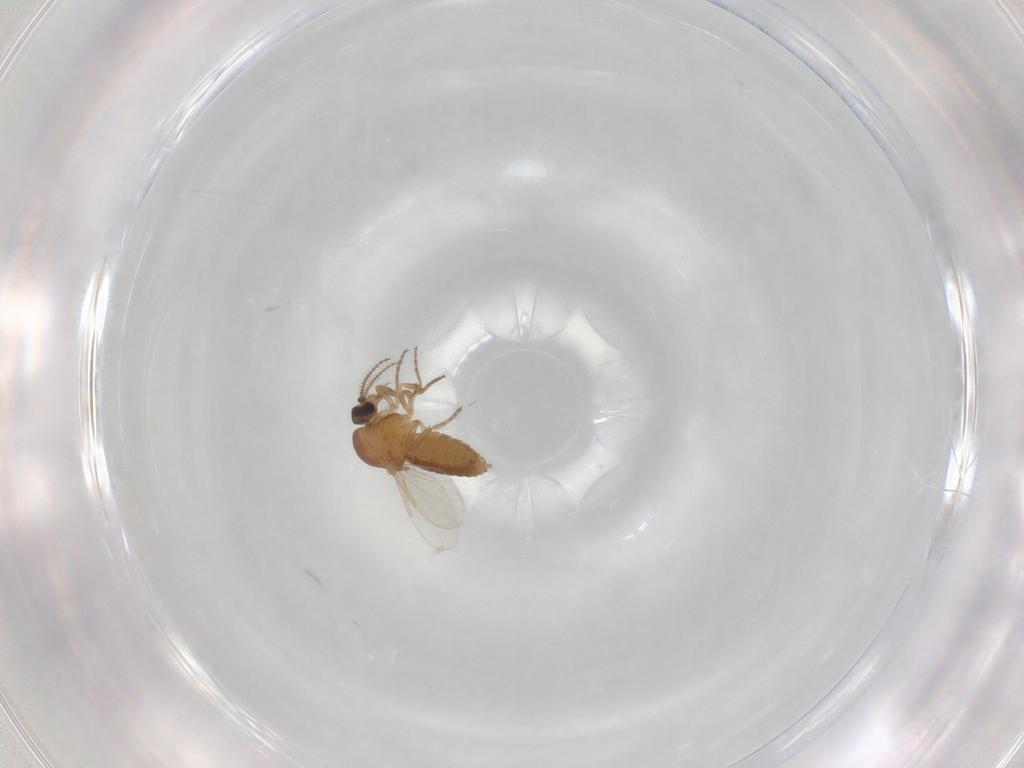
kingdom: Animalia
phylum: Arthropoda
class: Insecta
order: Diptera
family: Ceratopogonidae
